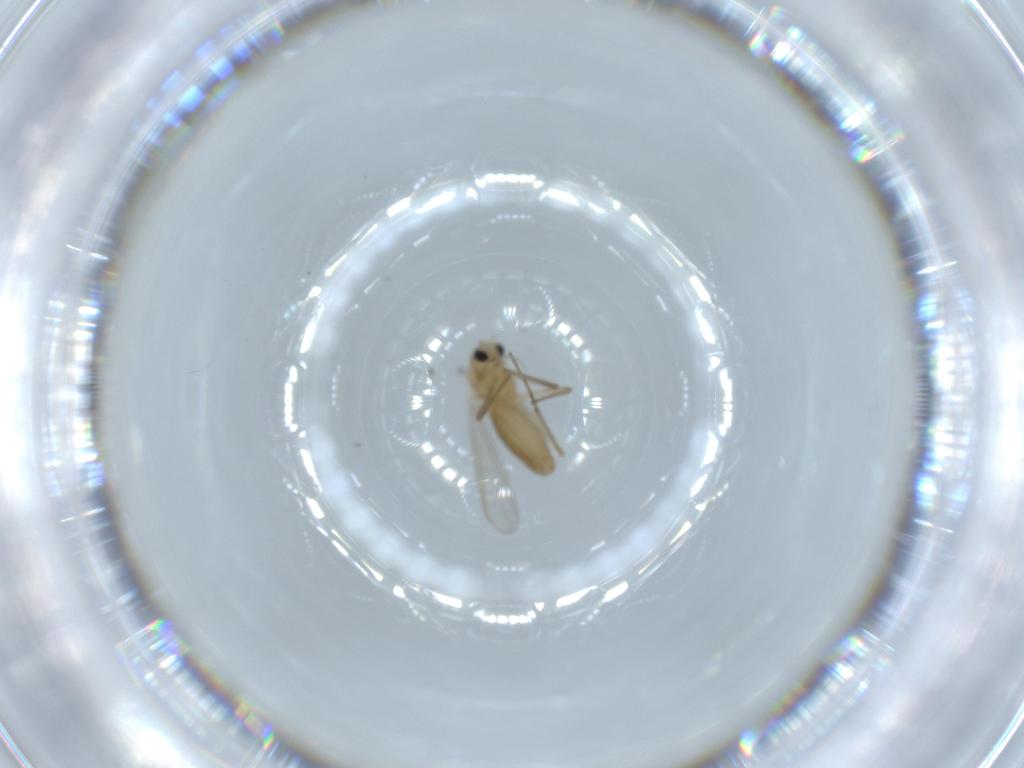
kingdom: Animalia
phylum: Arthropoda
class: Insecta
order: Diptera
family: Chironomidae
